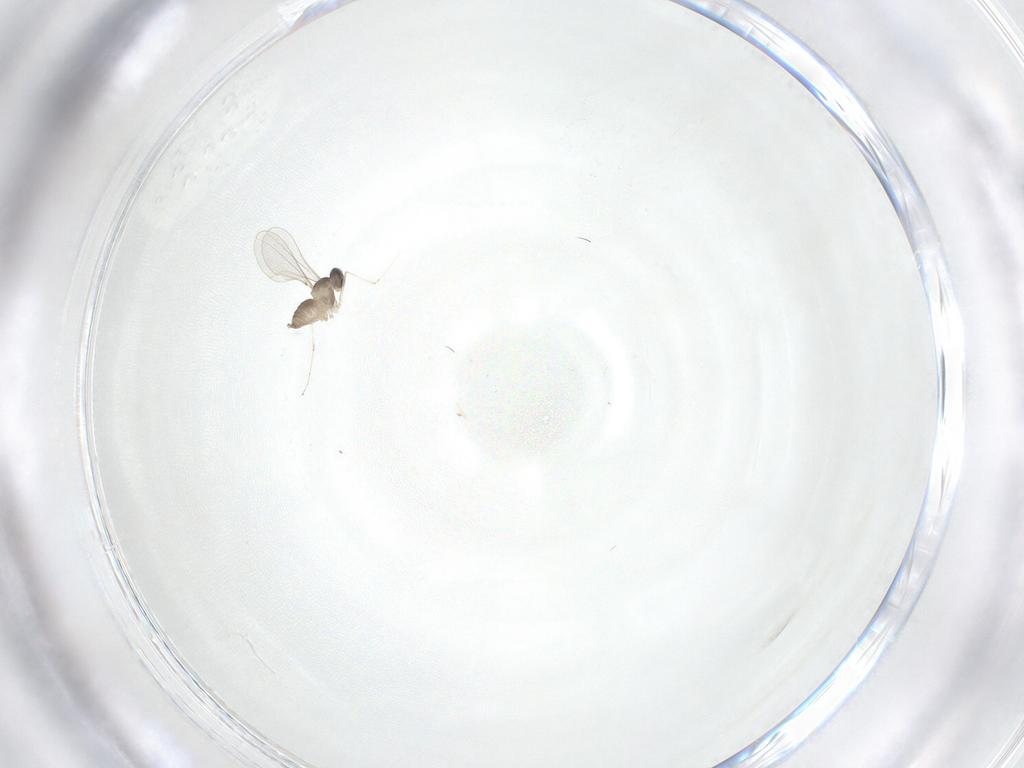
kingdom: Animalia
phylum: Arthropoda
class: Insecta
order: Diptera
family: Cecidomyiidae
